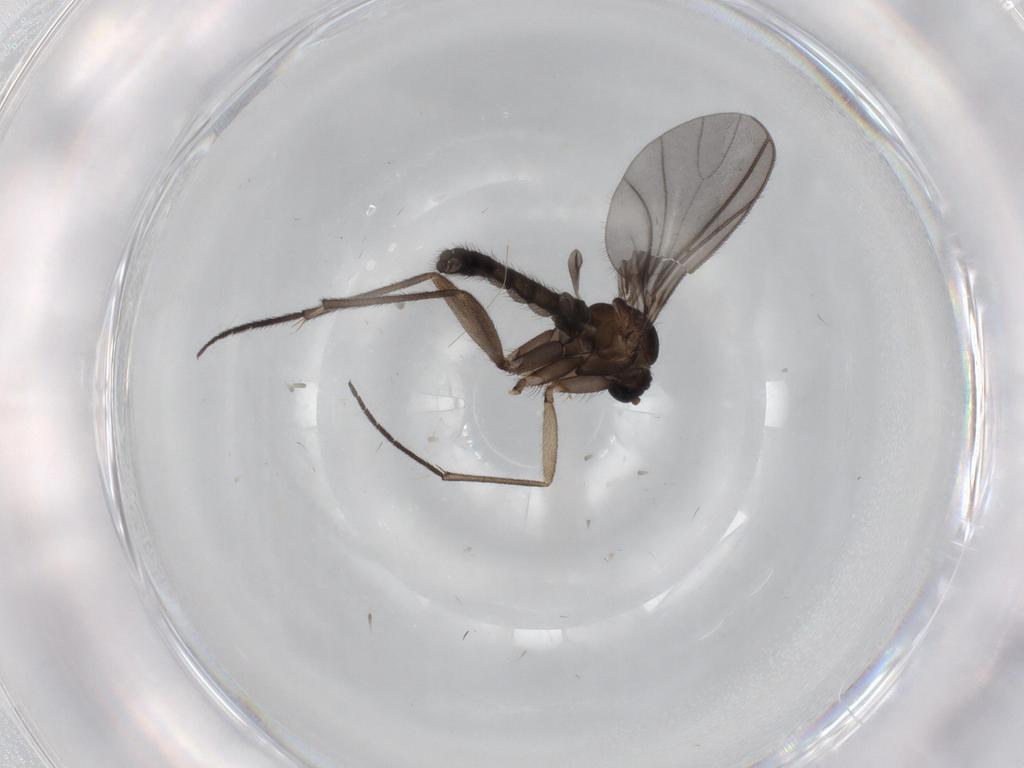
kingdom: Animalia
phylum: Arthropoda
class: Insecta
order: Diptera
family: Sciaridae
